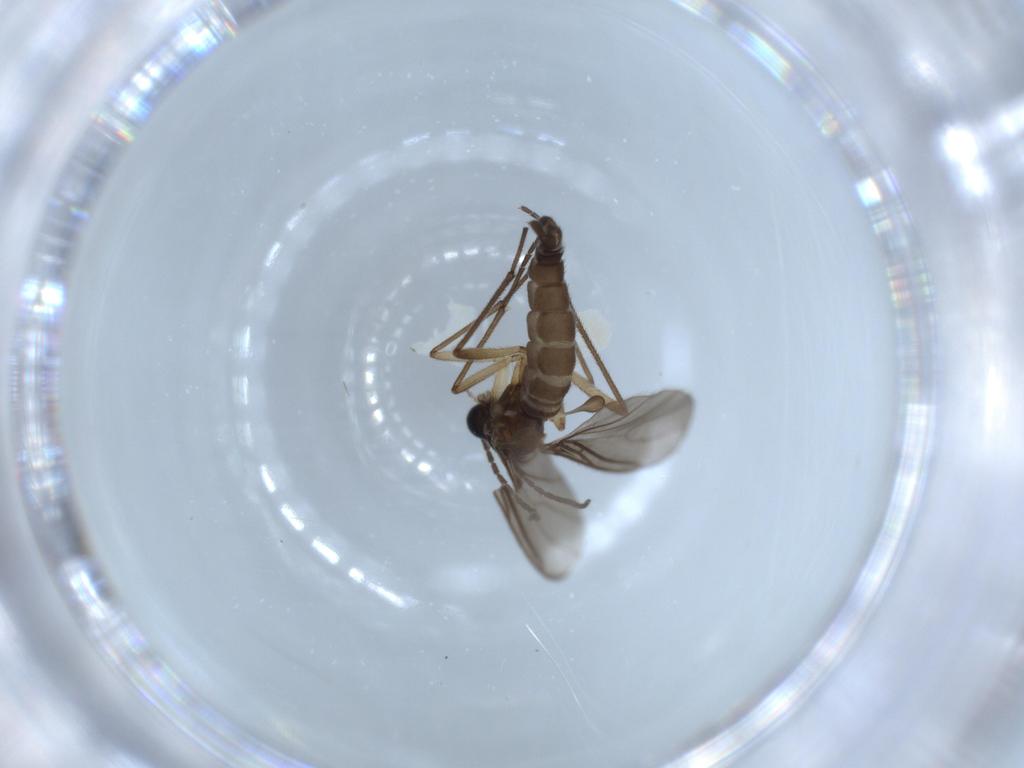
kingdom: Animalia
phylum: Arthropoda
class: Insecta
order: Diptera
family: Sciaridae
